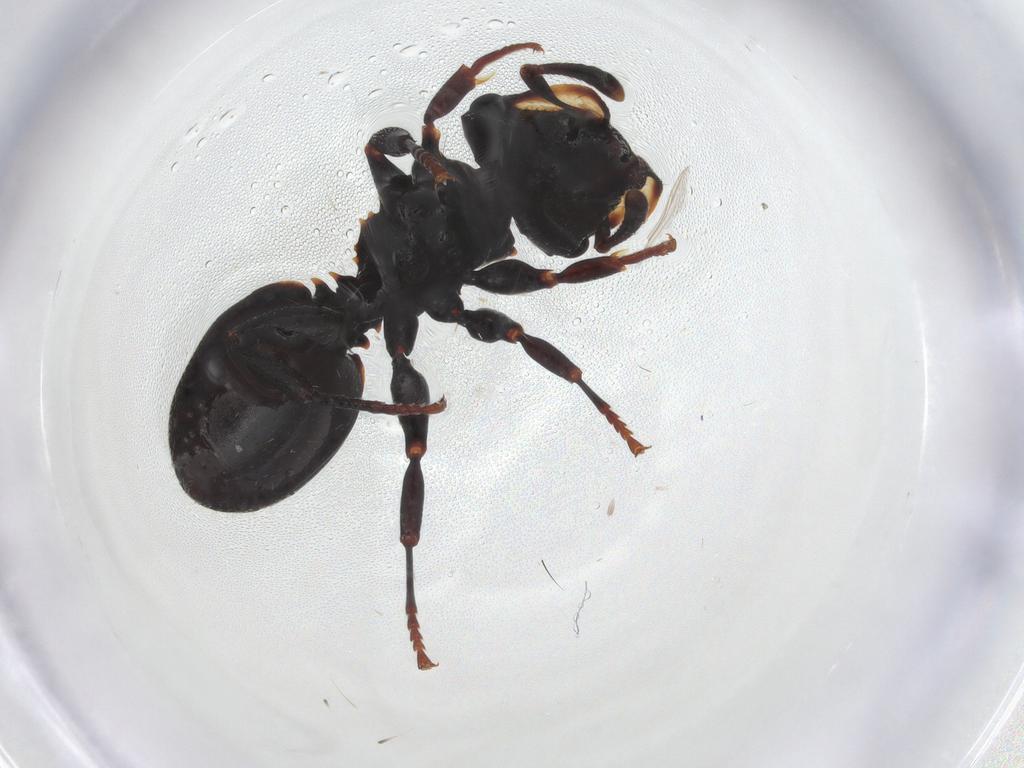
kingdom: Animalia
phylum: Arthropoda
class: Insecta
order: Hymenoptera
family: Formicidae
